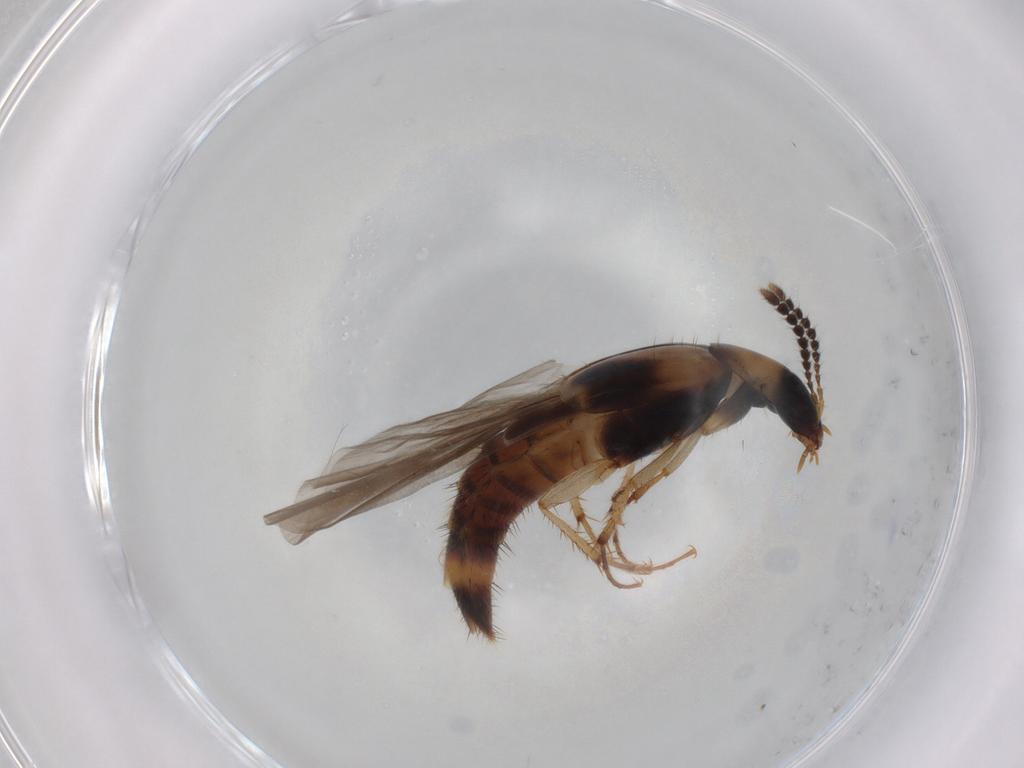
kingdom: Animalia
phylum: Arthropoda
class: Insecta
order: Coleoptera
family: Staphylinidae
